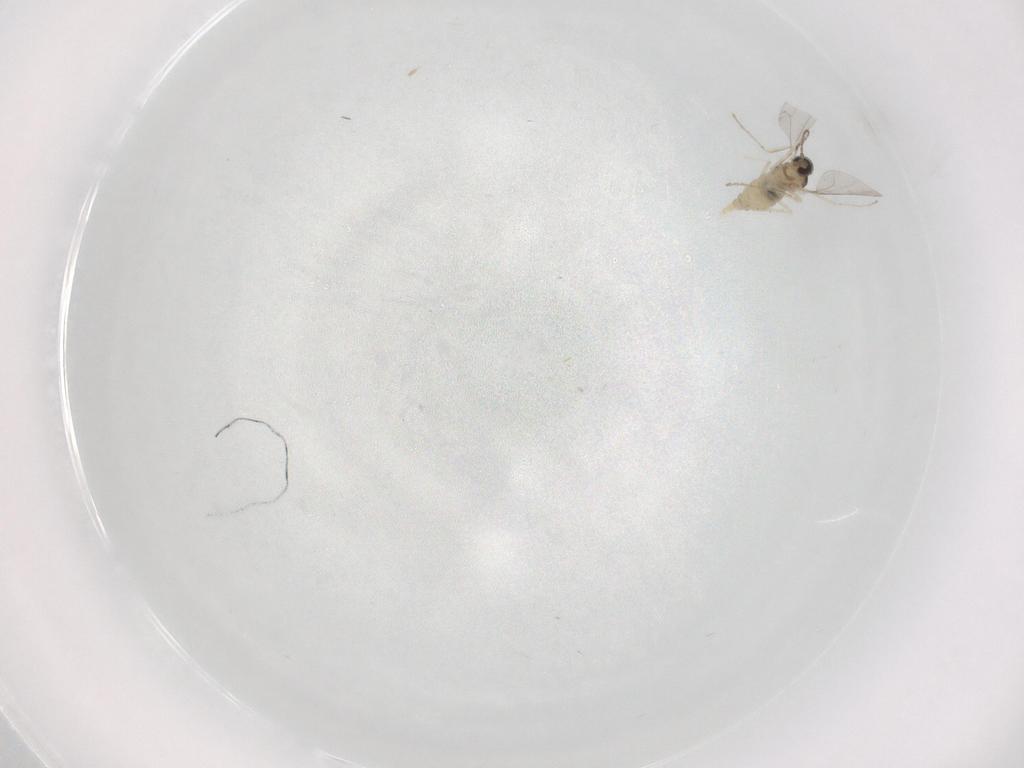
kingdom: Animalia
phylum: Arthropoda
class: Insecta
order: Diptera
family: Cecidomyiidae
